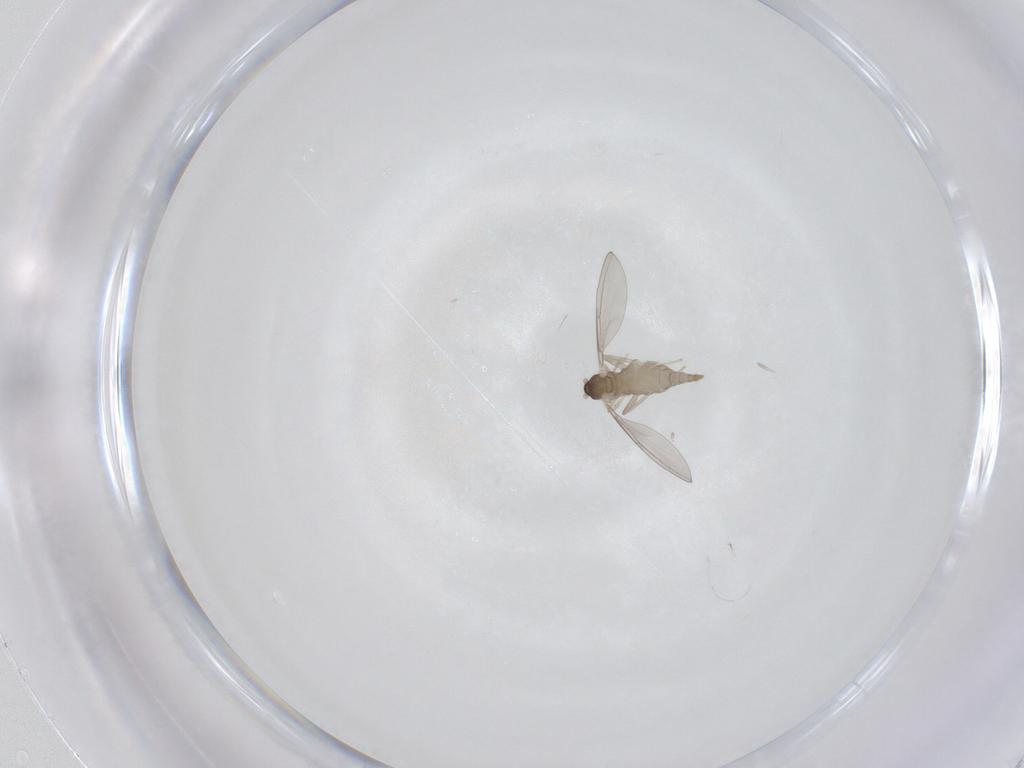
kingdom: Animalia
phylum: Arthropoda
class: Insecta
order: Diptera
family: Cecidomyiidae
